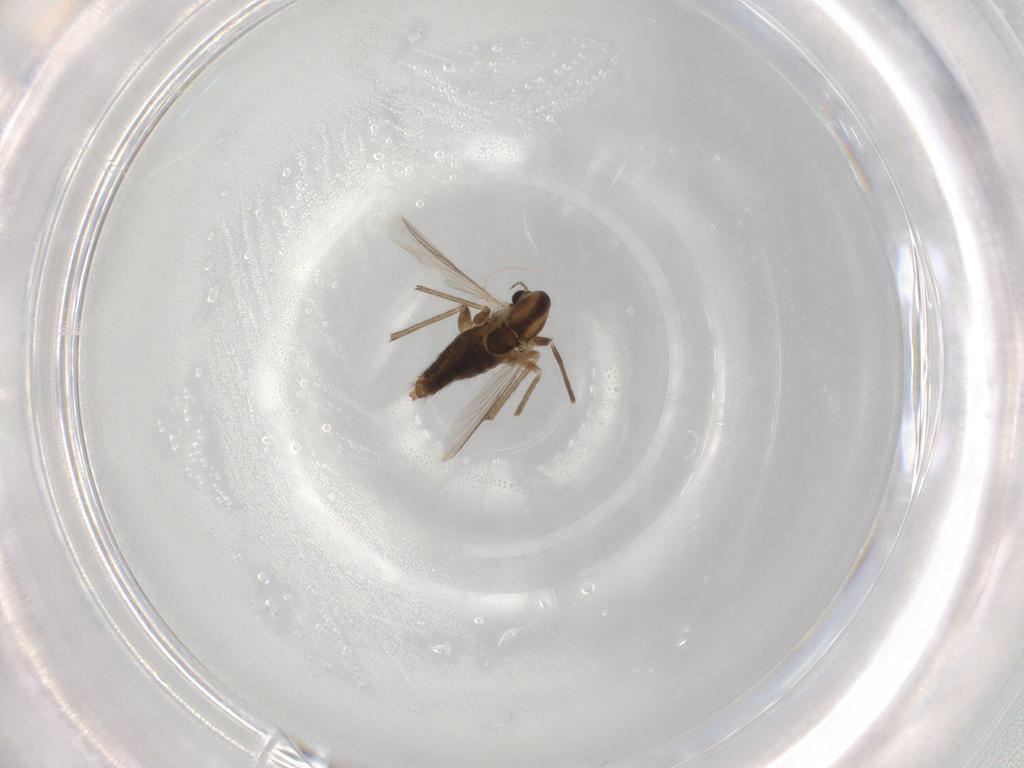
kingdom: Animalia
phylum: Arthropoda
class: Insecta
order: Diptera
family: Chironomidae
